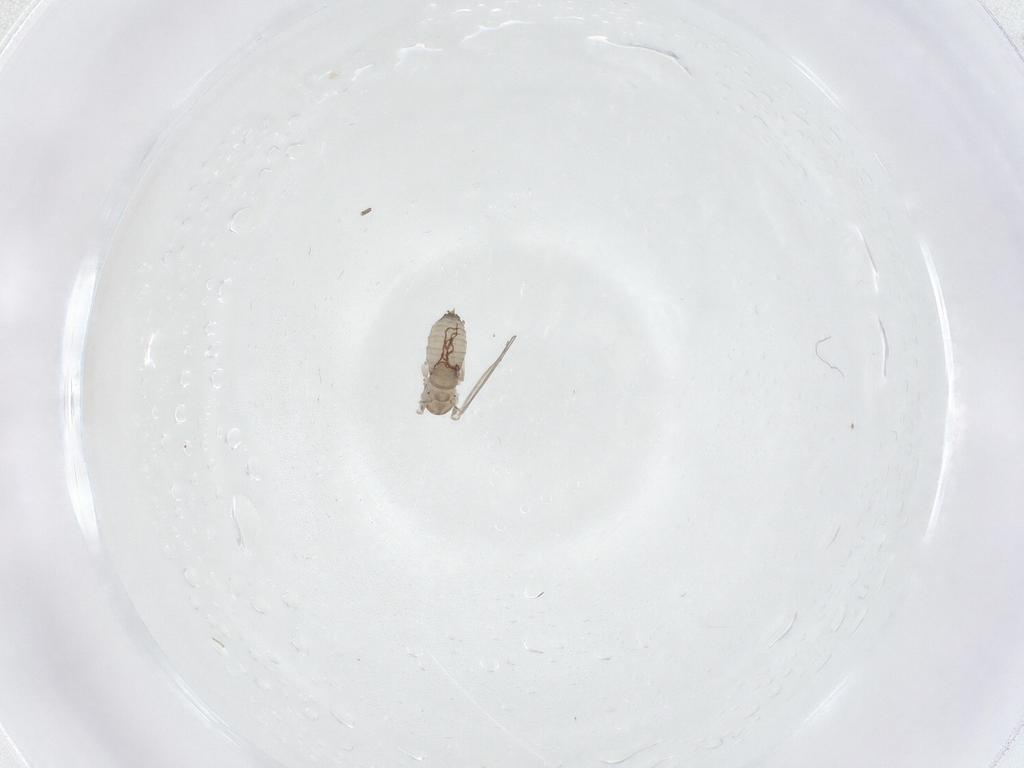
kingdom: Animalia
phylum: Arthropoda
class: Insecta
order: Diptera
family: Psychodidae
